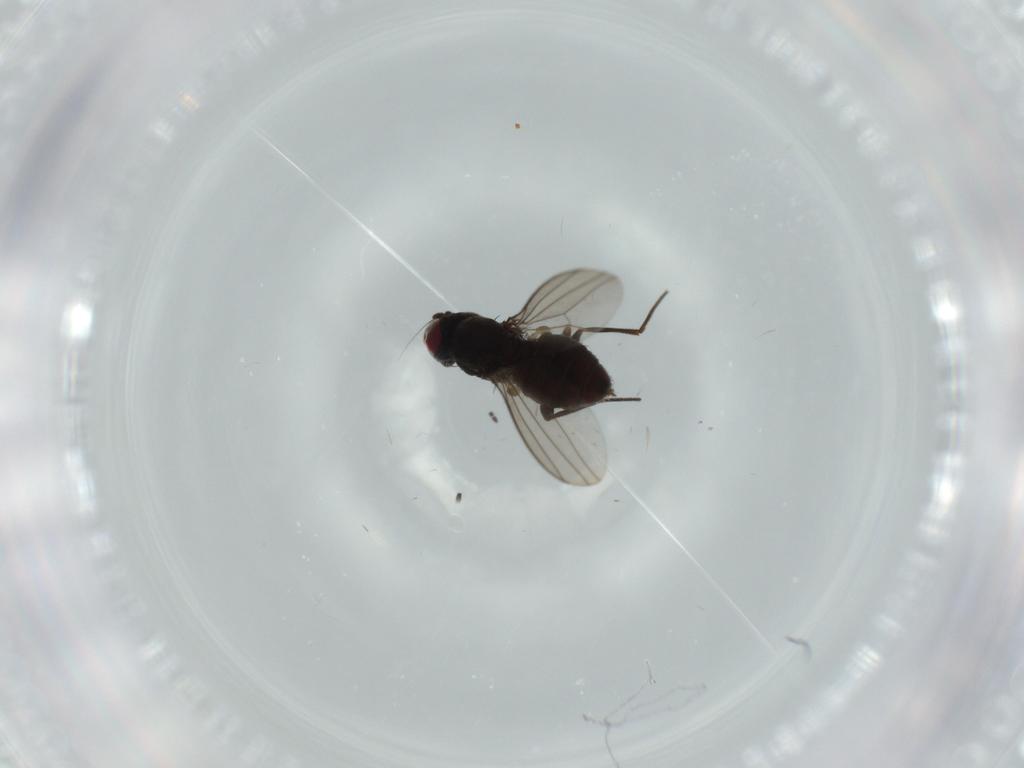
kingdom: Animalia
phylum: Arthropoda
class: Insecta
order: Diptera
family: Dolichopodidae
